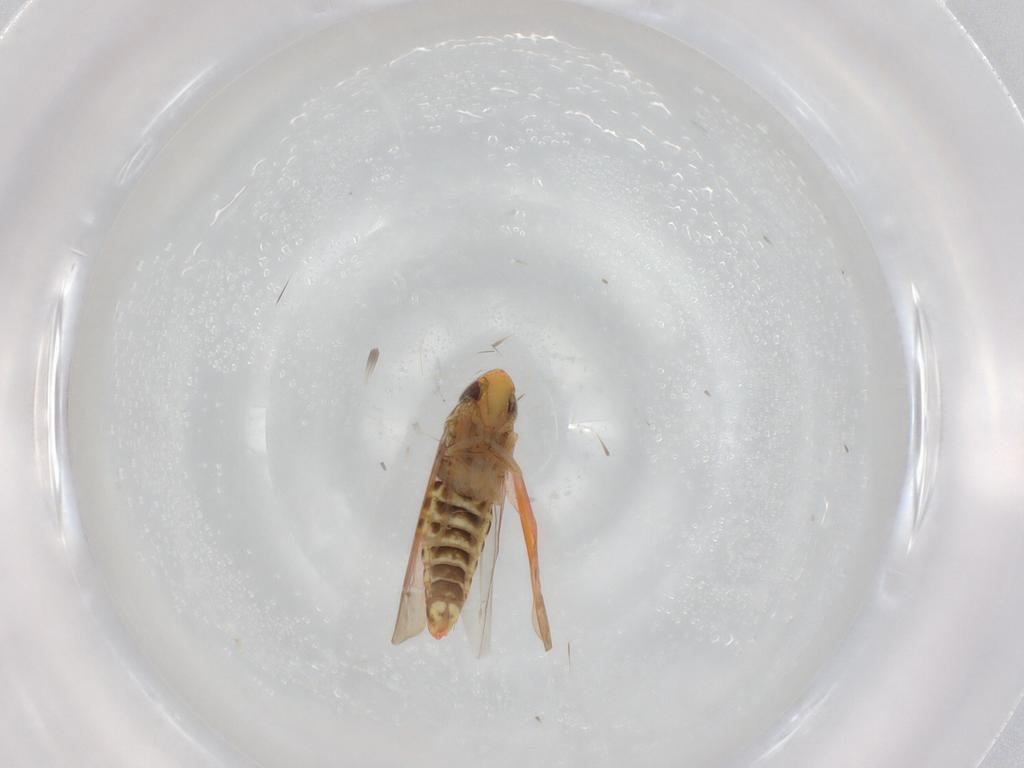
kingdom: Animalia
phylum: Arthropoda
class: Insecta
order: Hemiptera
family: Cicadellidae
